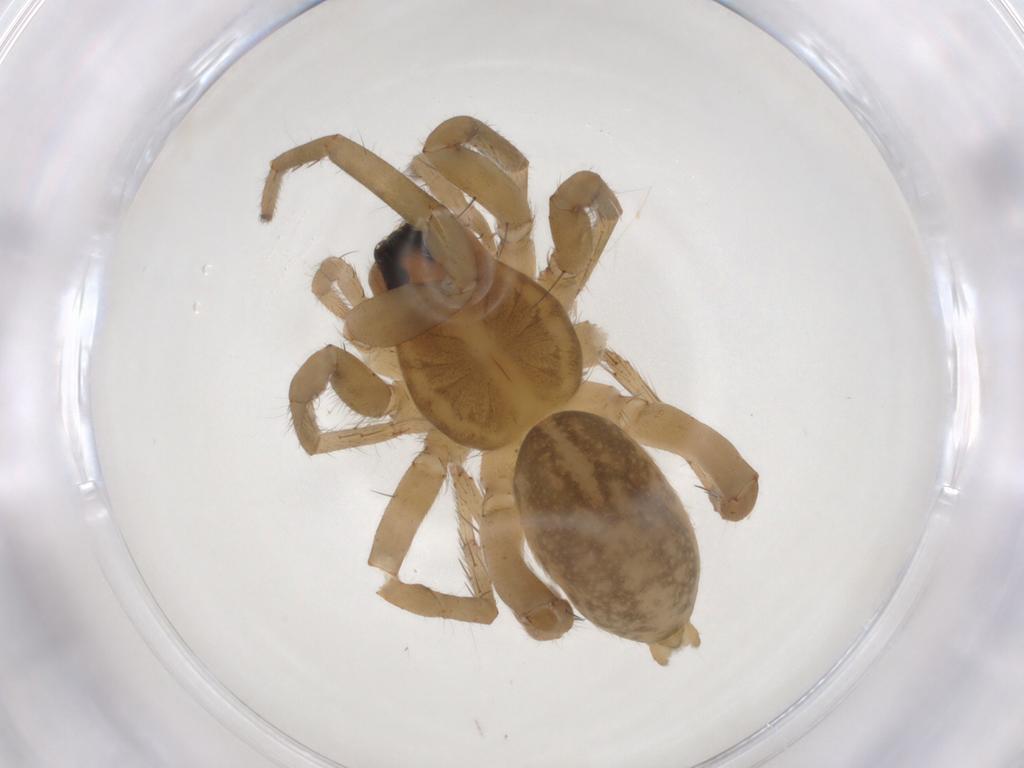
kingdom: Animalia
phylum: Arthropoda
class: Arachnida
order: Araneae
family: Lycosidae
